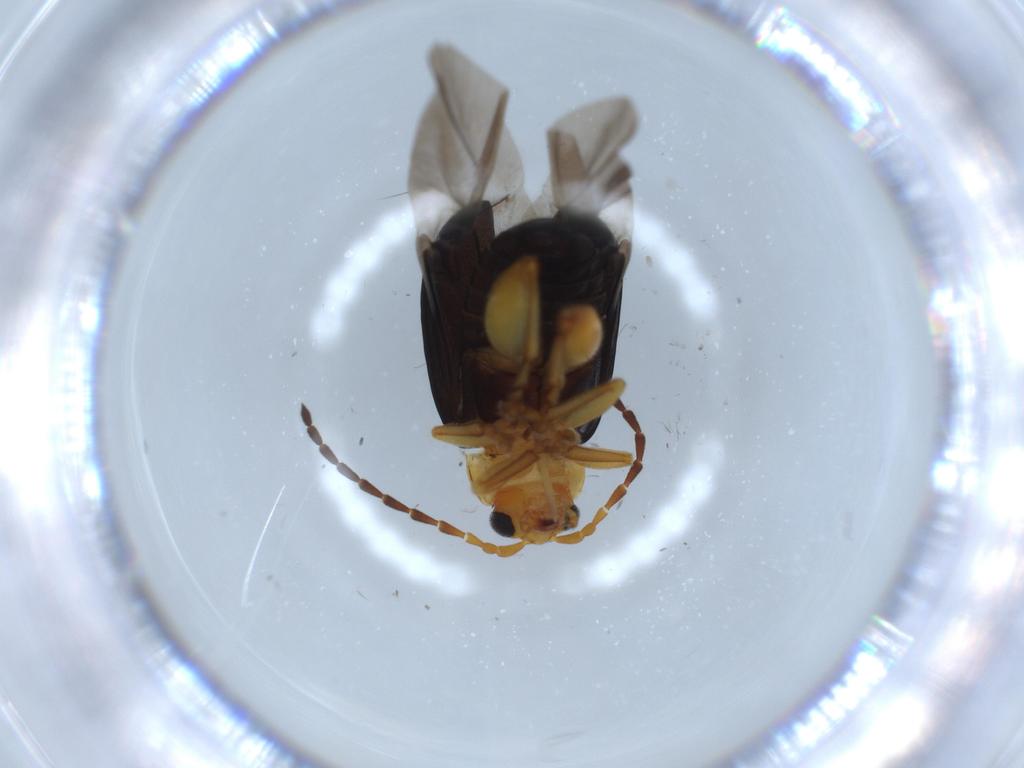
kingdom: Animalia
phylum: Arthropoda
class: Insecta
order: Coleoptera
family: Chrysomelidae
